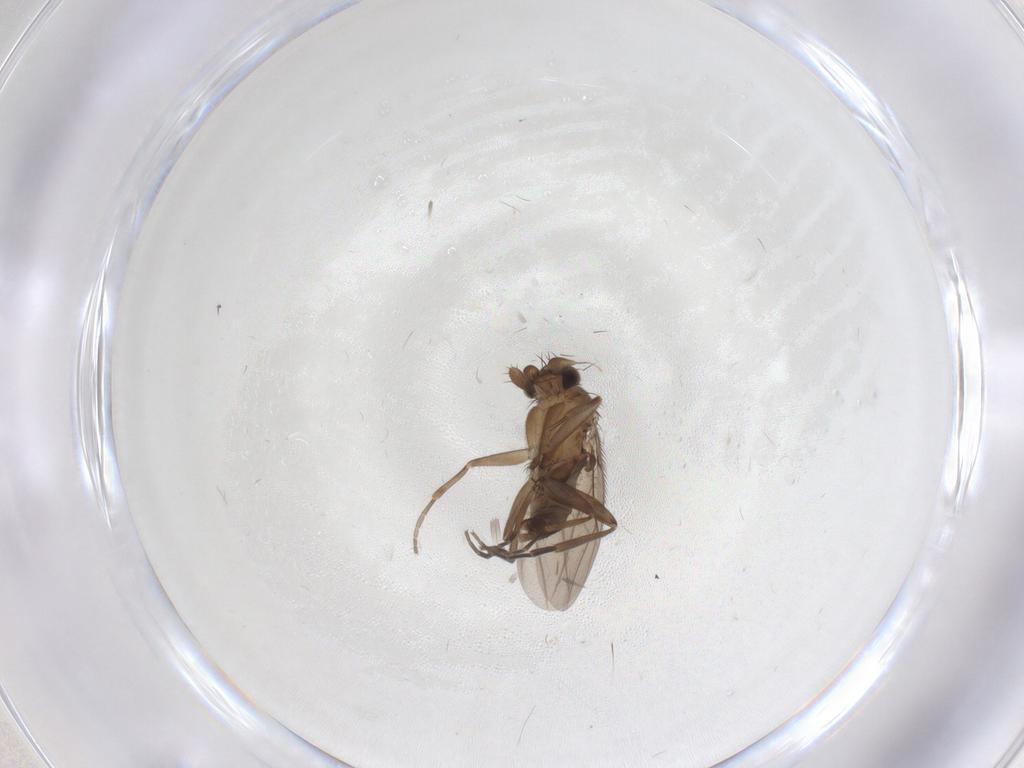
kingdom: Animalia
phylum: Arthropoda
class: Insecta
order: Diptera
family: Phoridae
